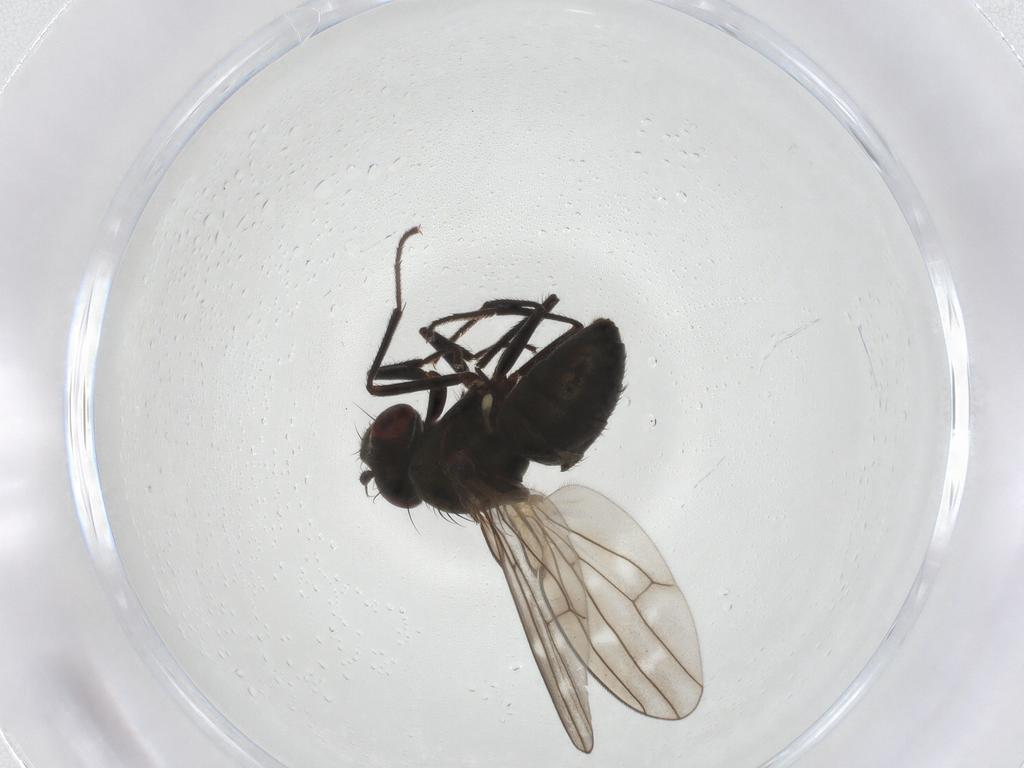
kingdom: Animalia
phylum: Arthropoda
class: Insecta
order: Diptera
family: Ephydridae
